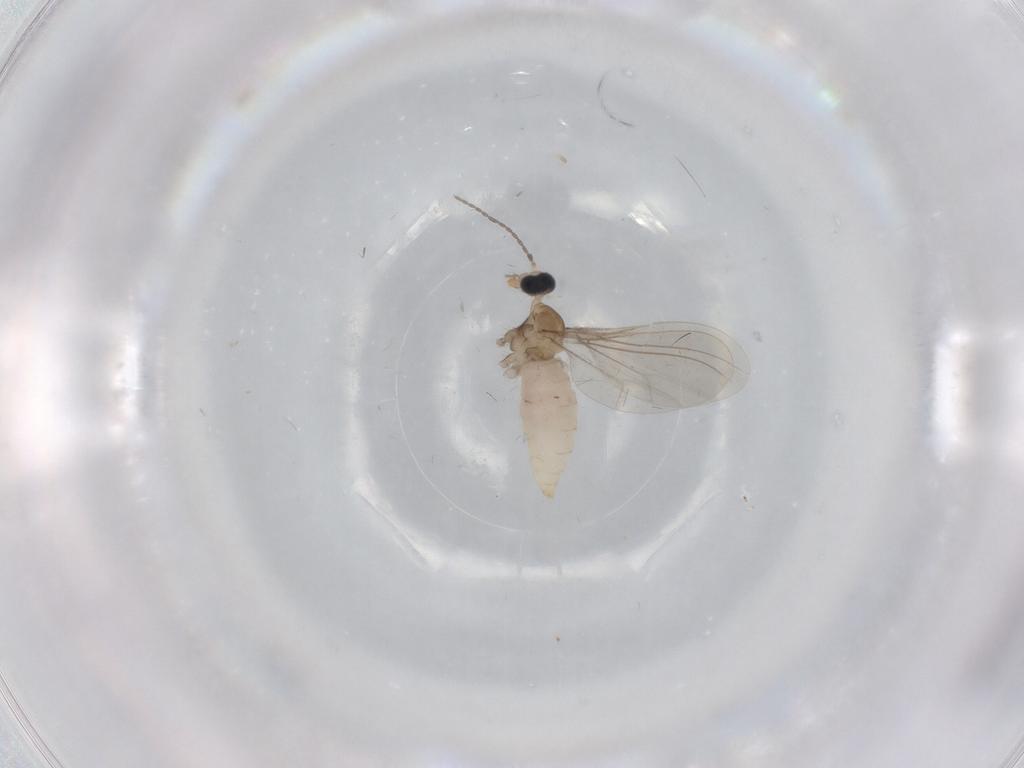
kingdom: Animalia
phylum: Arthropoda
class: Insecta
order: Diptera
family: Cecidomyiidae
